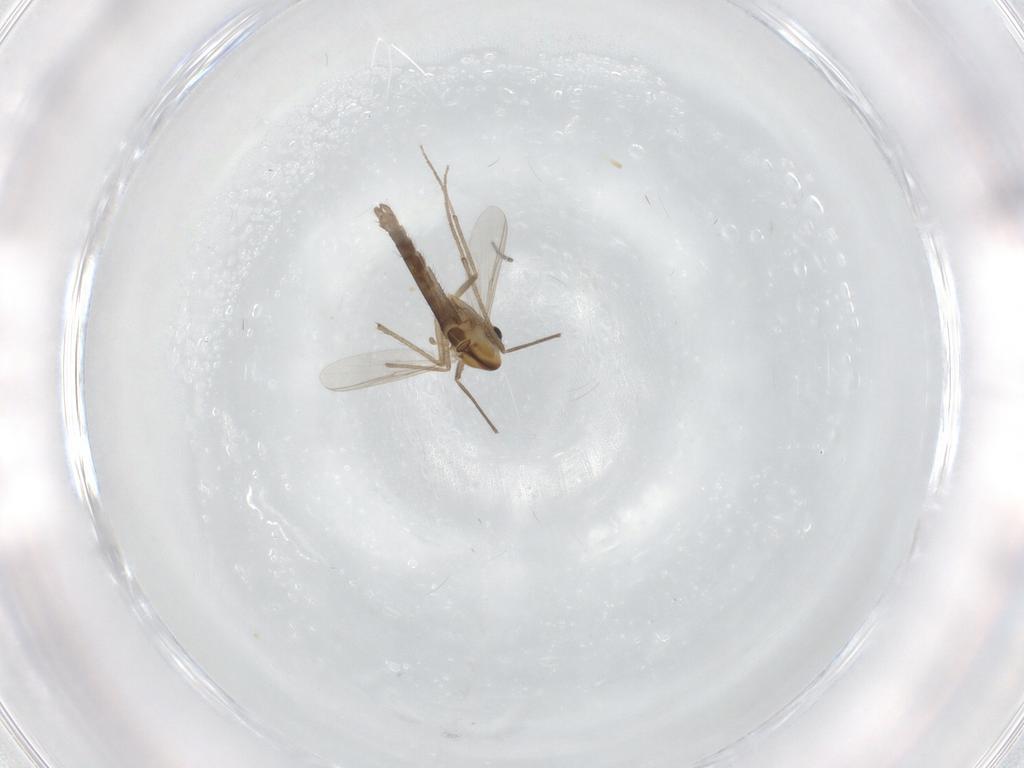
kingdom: Animalia
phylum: Arthropoda
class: Insecta
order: Diptera
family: Chironomidae
